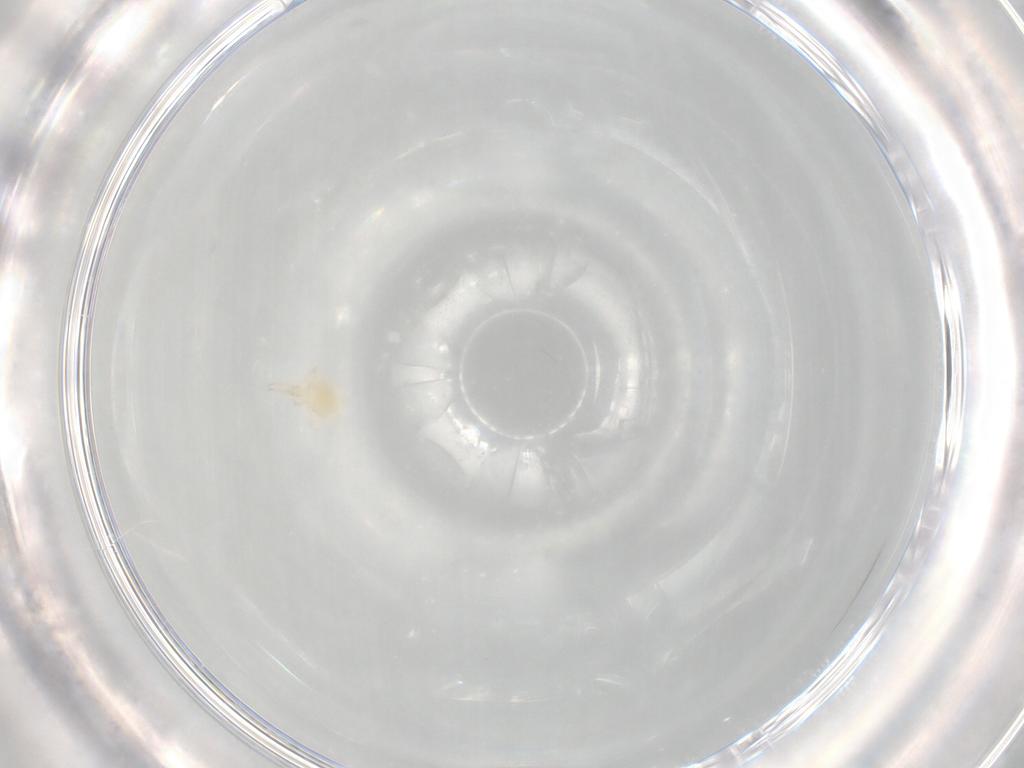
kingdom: Animalia
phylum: Arthropoda
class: Arachnida
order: Trombidiformes
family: Cunaxidae
